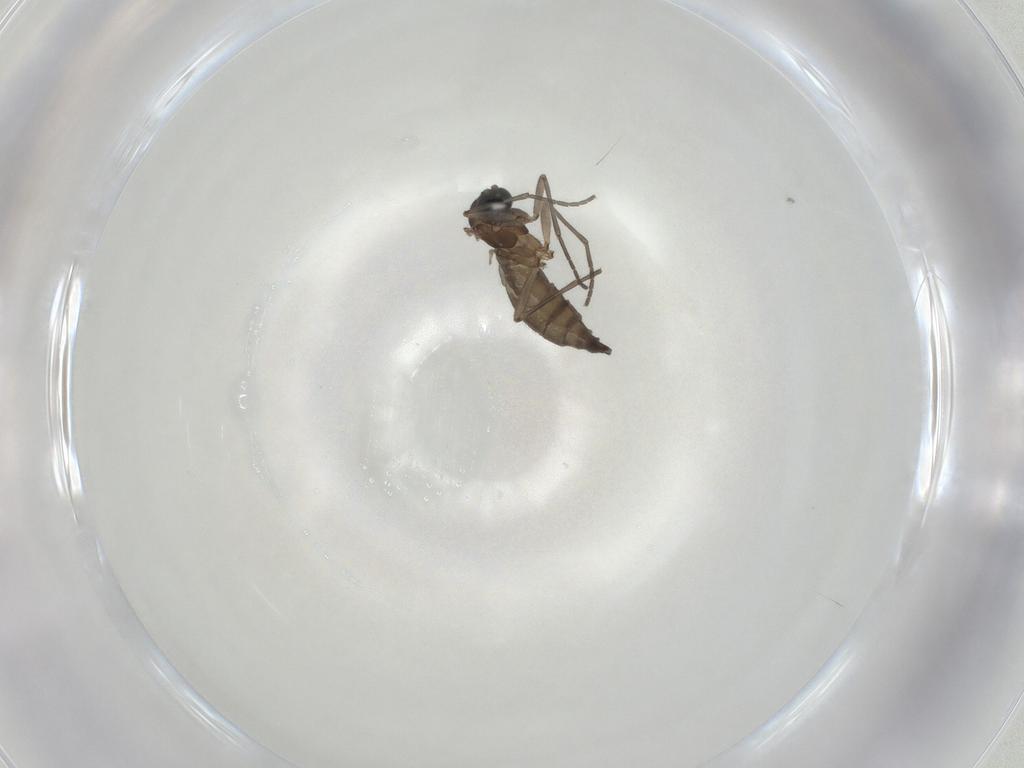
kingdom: Animalia
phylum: Arthropoda
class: Insecta
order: Diptera
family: Sciaridae
